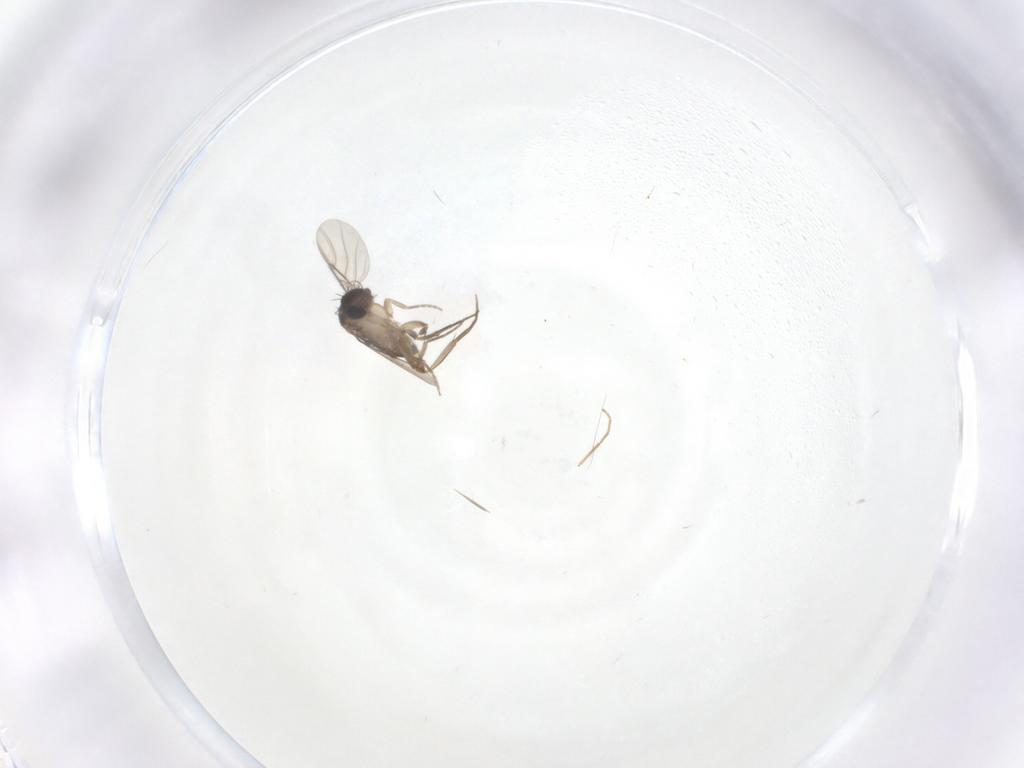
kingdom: Animalia
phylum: Arthropoda
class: Insecta
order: Diptera
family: Phoridae
